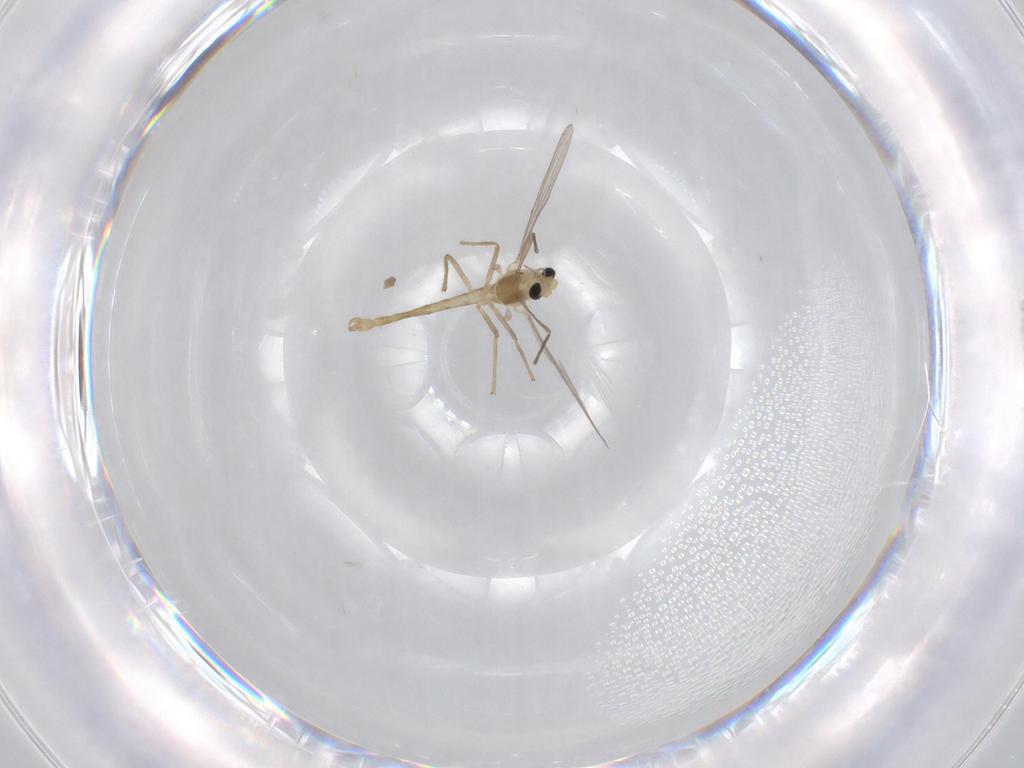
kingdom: Animalia
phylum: Arthropoda
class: Insecta
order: Diptera
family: Chironomidae
